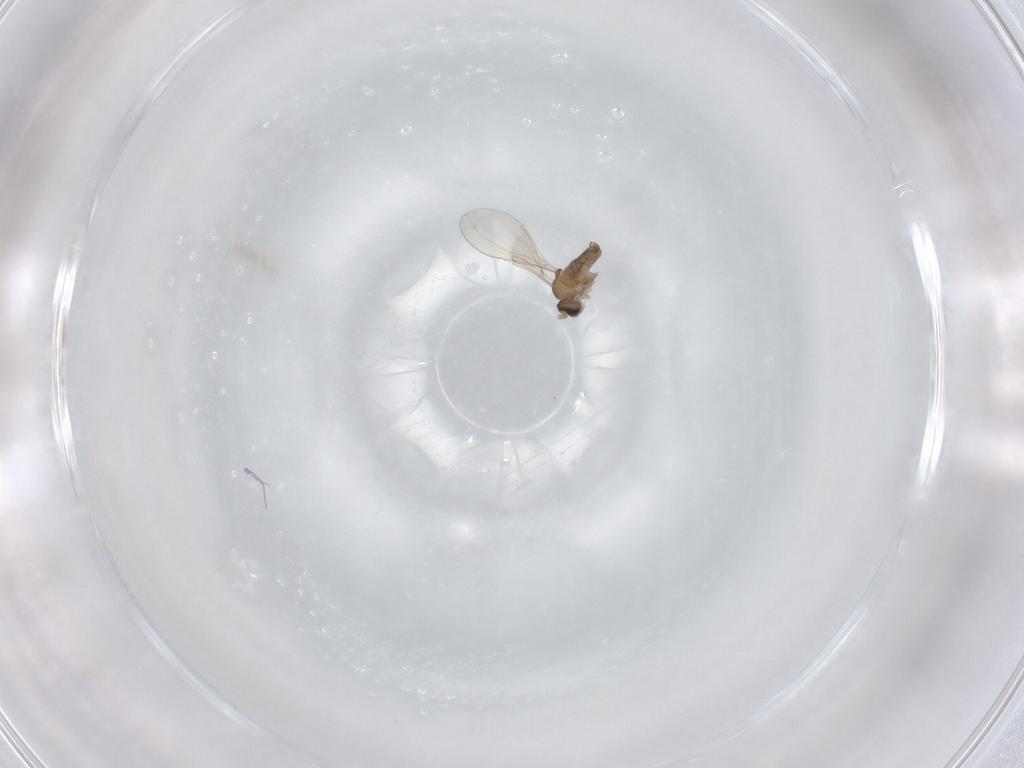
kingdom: Animalia
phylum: Arthropoda
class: Insecta
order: Diptera
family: Cecidomyiidae
